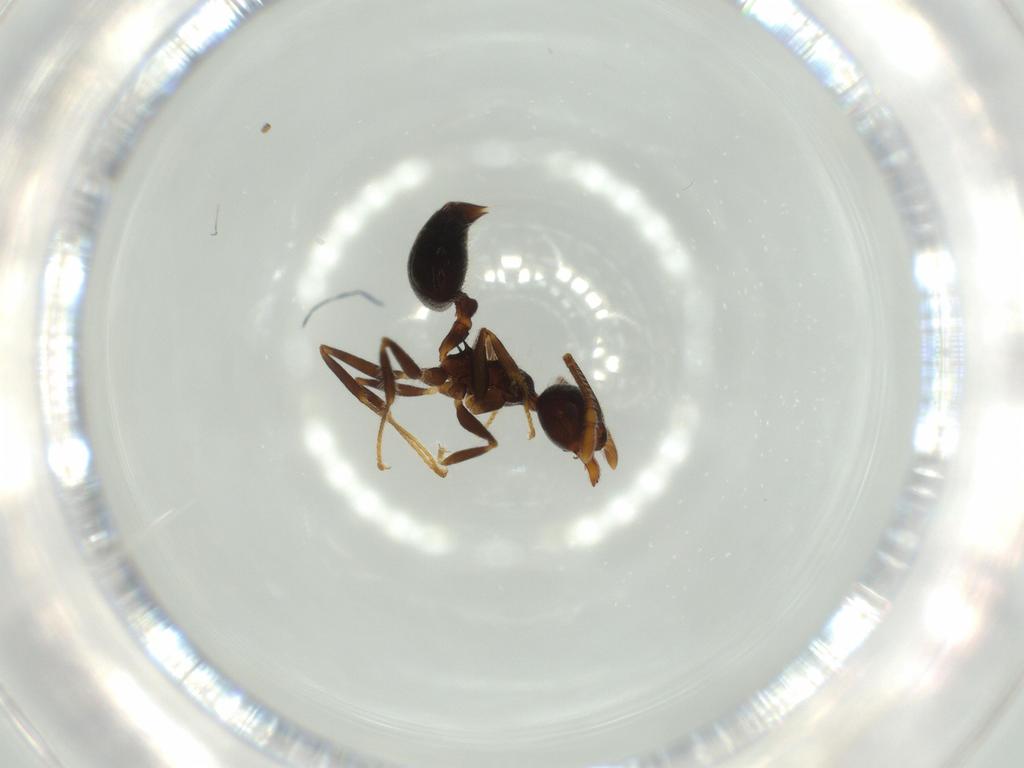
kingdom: Animalia
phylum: Arthropoda
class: Insecta
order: Hymenoptera
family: Formicidae
